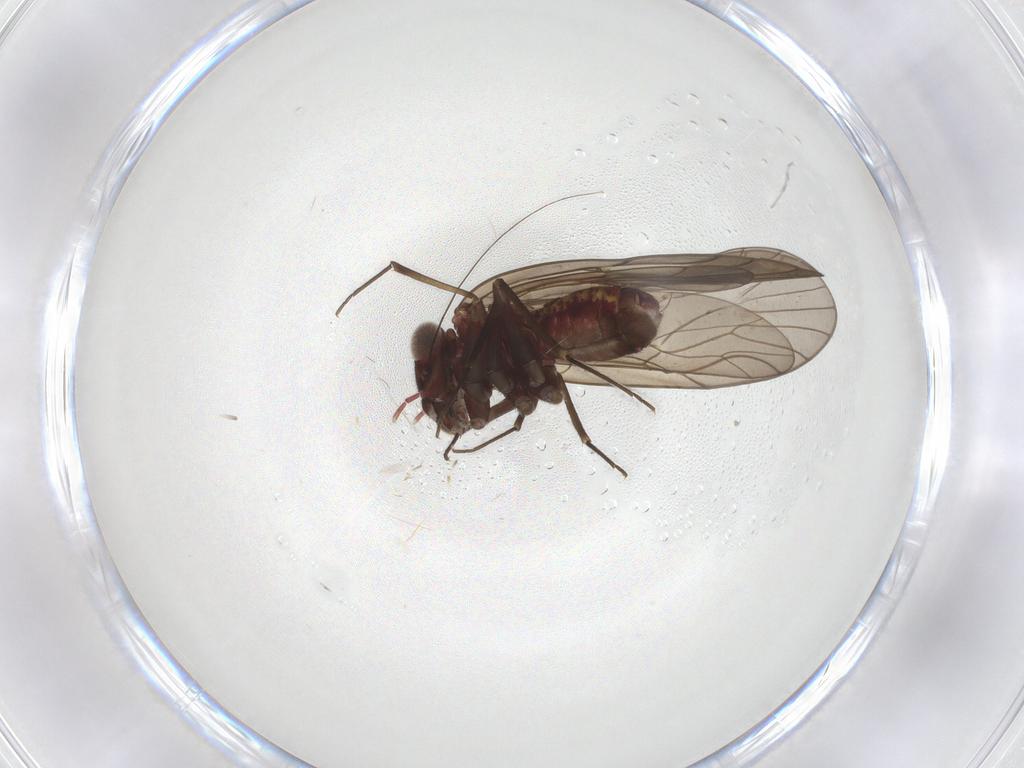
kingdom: Animalia
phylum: Arthropoda
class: Insecta
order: Psocodea
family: Philotarsidae
